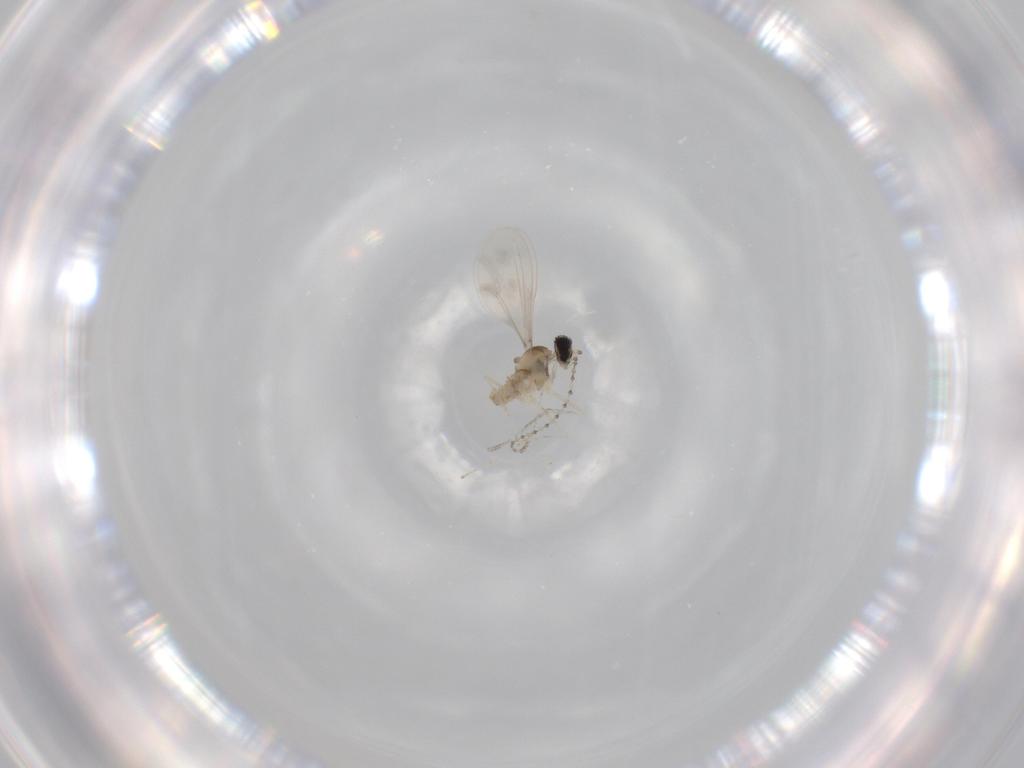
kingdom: Animalia
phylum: Arthropoda
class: Insecta
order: Diptera
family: Cecidomyiidae
